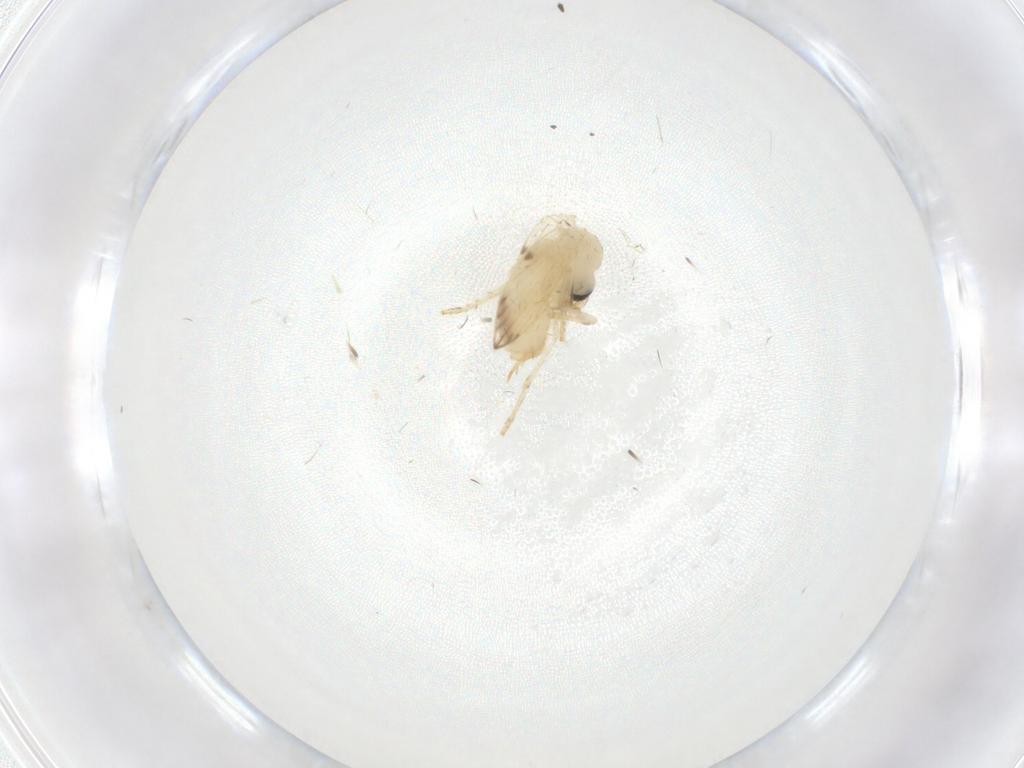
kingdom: Animalia
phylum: Arthropoda
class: Insecta
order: Diptera
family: Psychodidae
